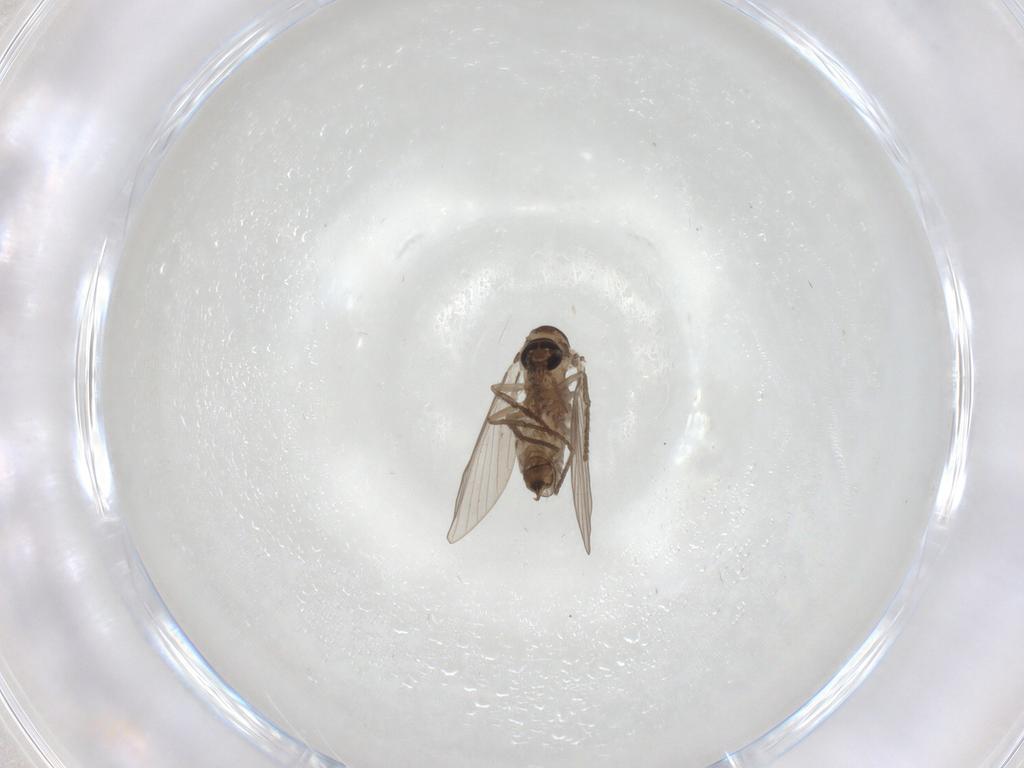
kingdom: Animalia
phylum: Arthropoda
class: Insecta
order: Diptera
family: Ceratopogonidae
